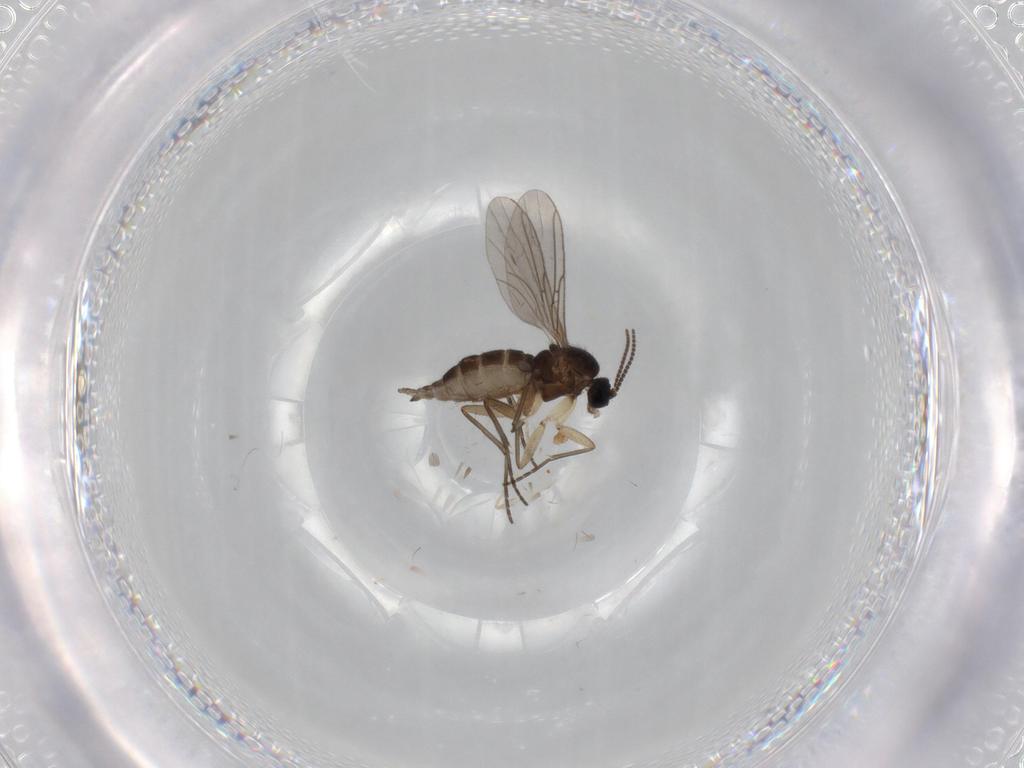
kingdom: Animalia
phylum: Arthropoda
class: Insecta
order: Diptera
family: Cecidomyiidae
